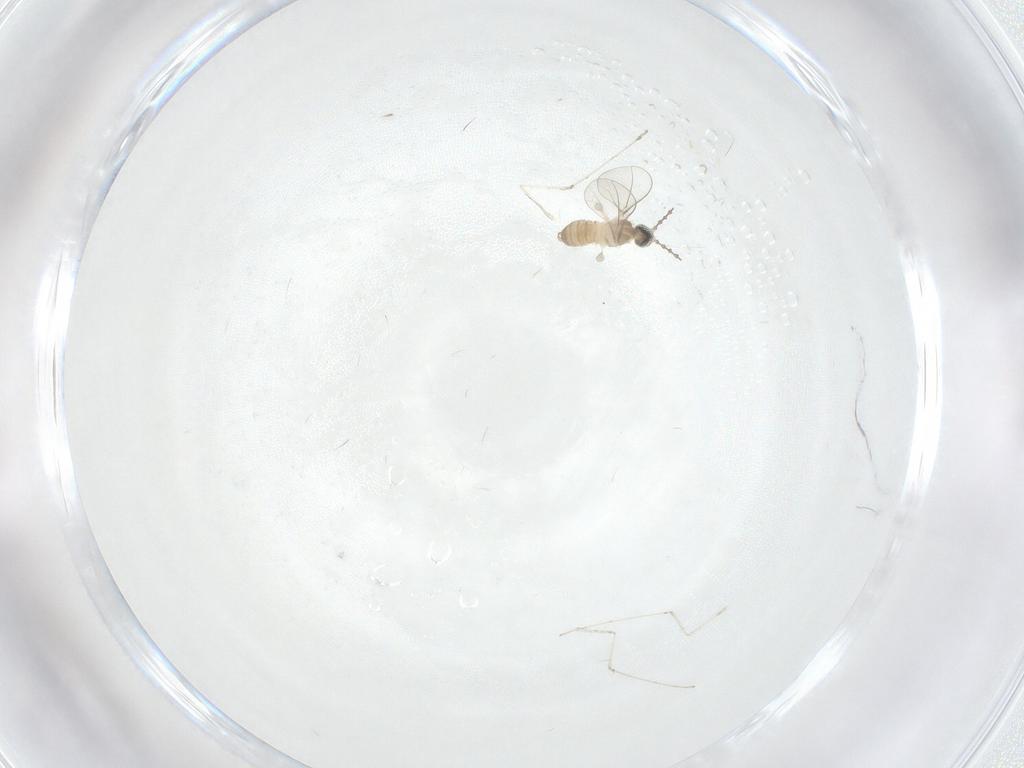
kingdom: Animalia
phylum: Arthropoda
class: Insecta
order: Diptera
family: Cecidomyiidae
